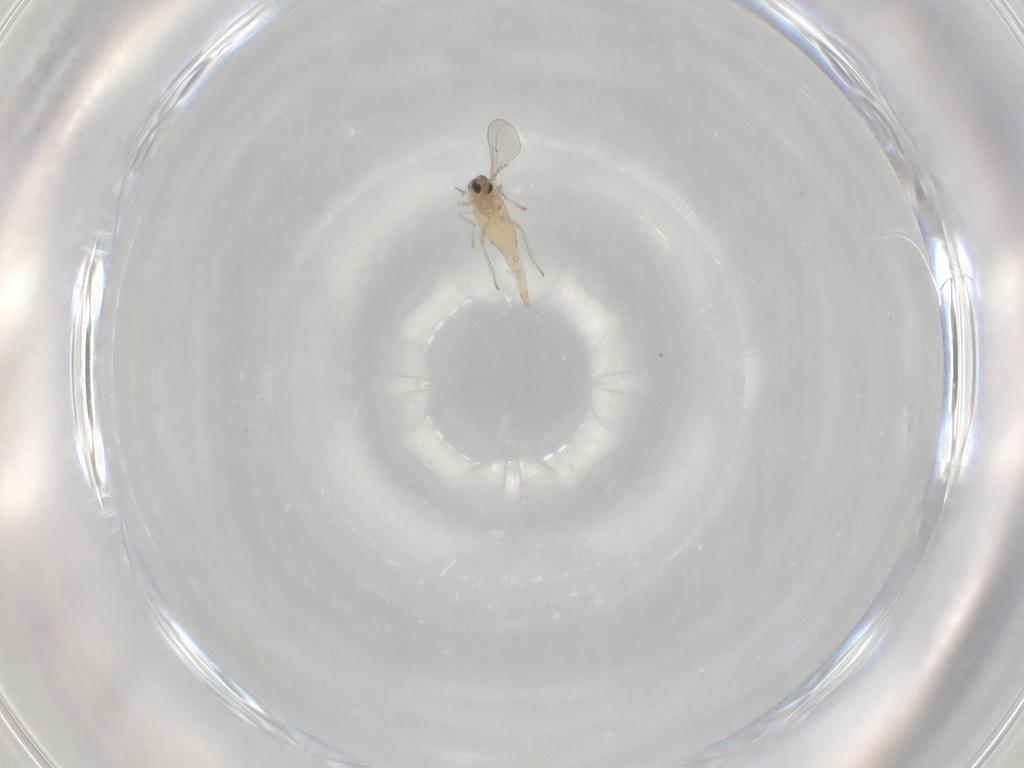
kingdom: Animalia
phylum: Arthropoda
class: Insecta
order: Diptera
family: Cecidomyiidae
